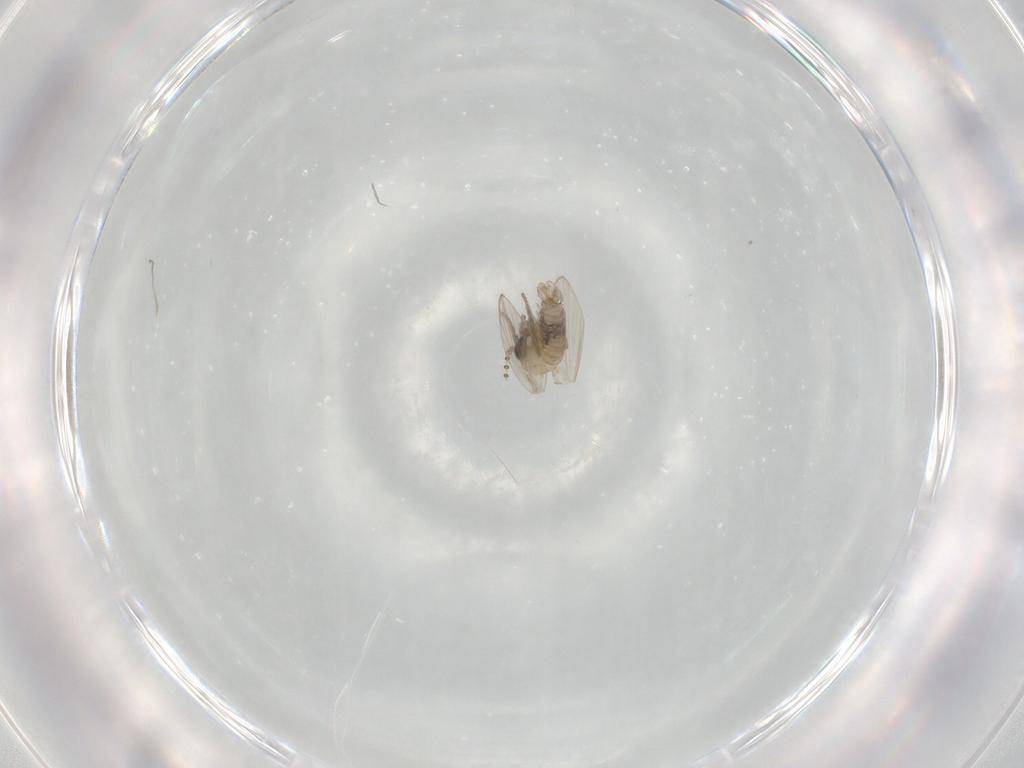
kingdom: Animalia
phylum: Arthropoda
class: Insecta
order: Diptera
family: Psychodidae
